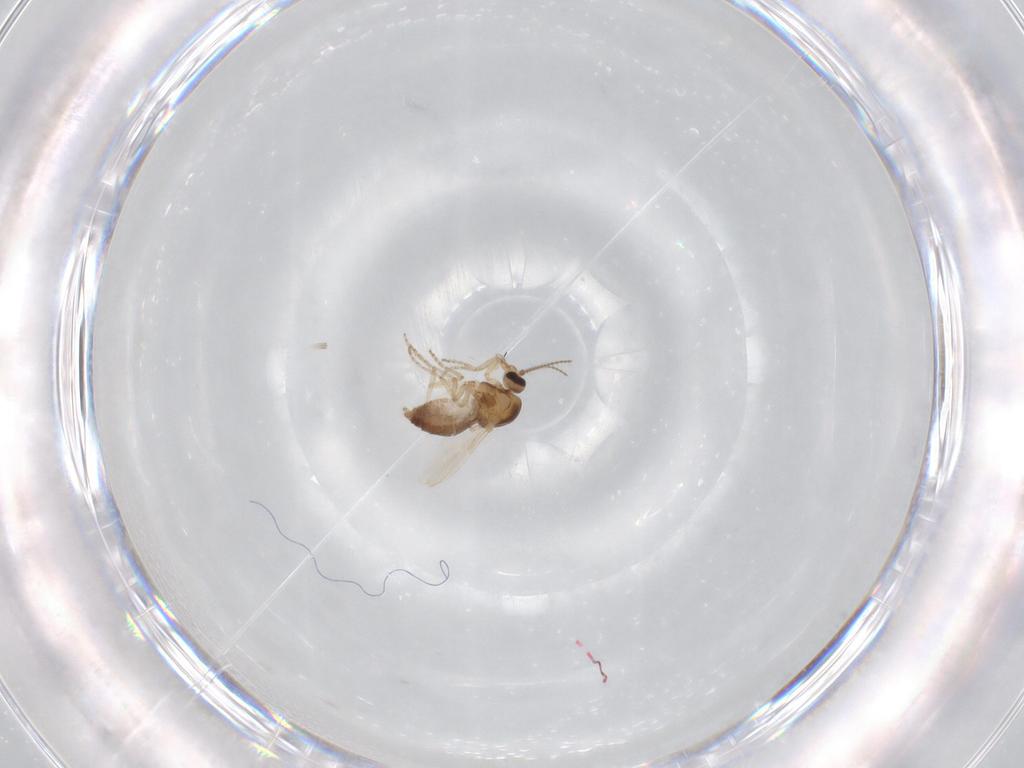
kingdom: Animalia
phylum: Arthropoda
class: Insecta
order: Diptera
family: Ceratopogonidae
